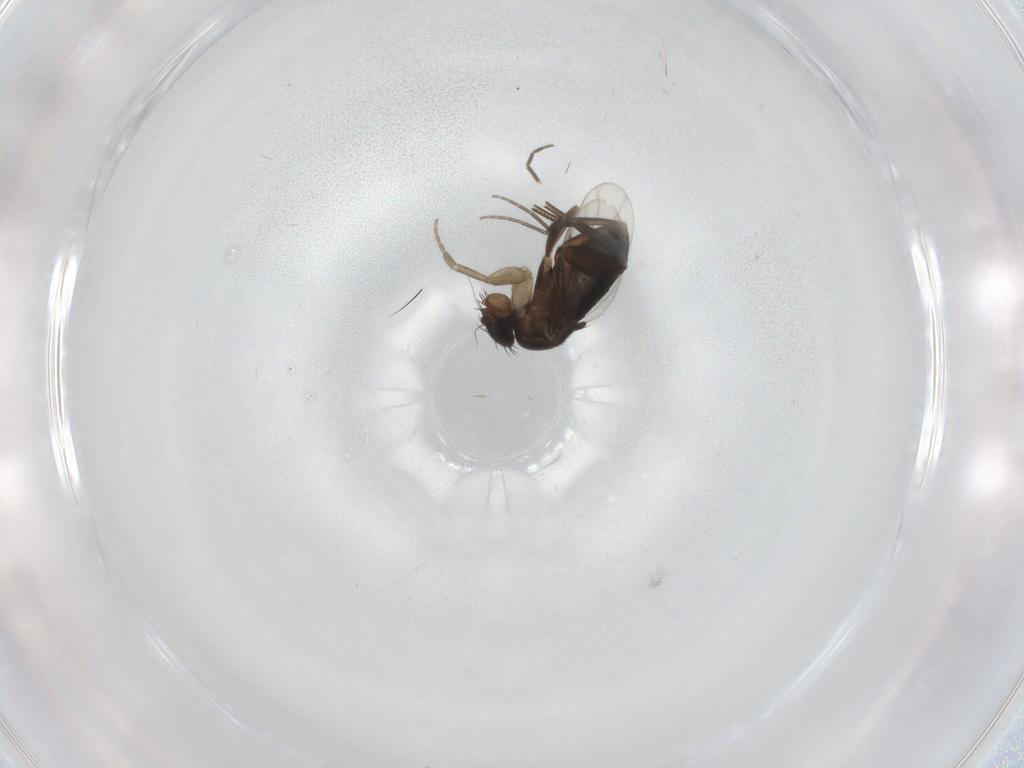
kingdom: Animalia
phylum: Arthropoda
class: Insecta
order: Diptera
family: Phoridae
